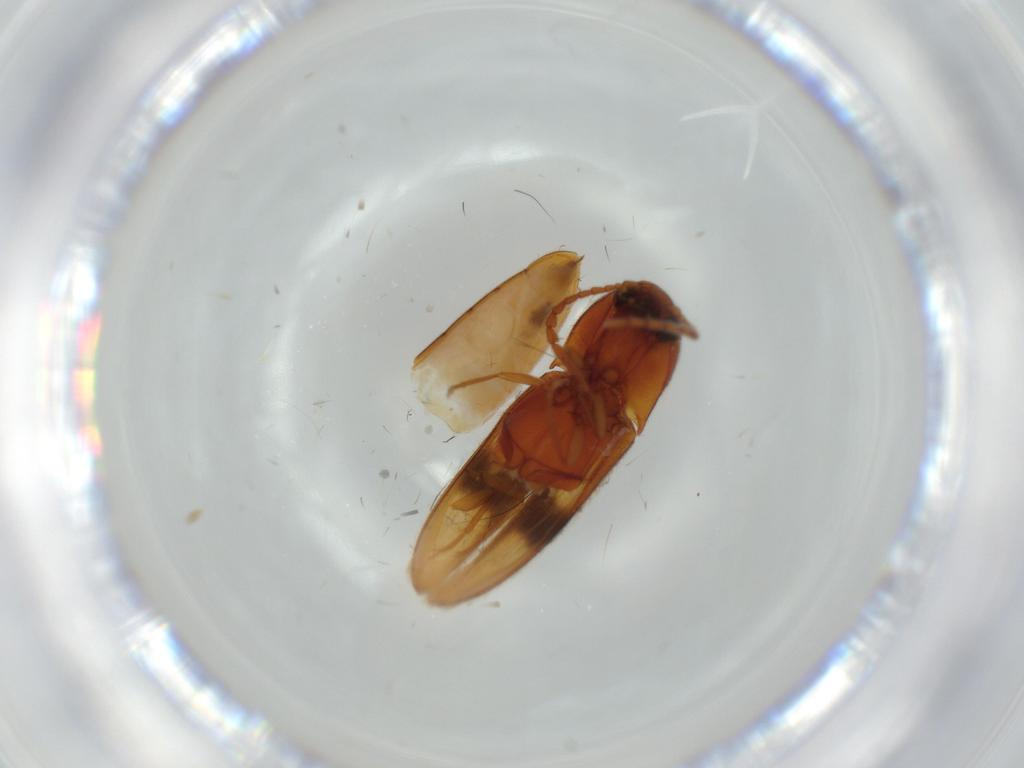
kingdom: Animalia
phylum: Arthropoda
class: Insecta
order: Coleoptera
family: Elateridae
